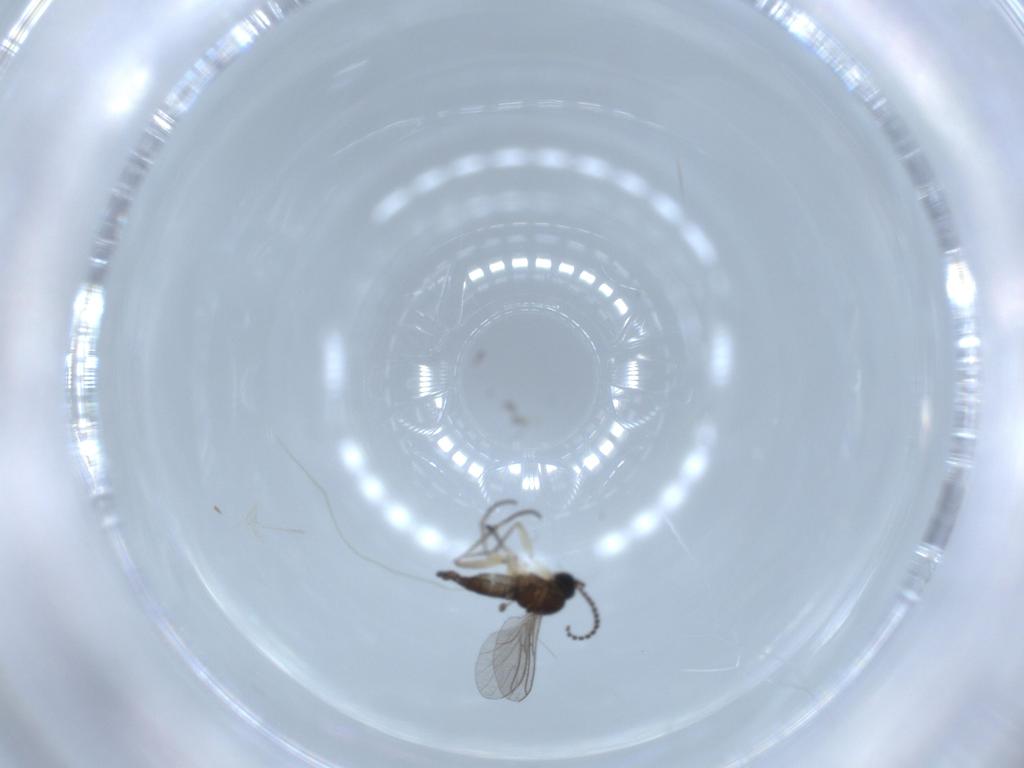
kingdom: Animalia
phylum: Arthropoda
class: Insecta
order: Diptera
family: Sciaridae
